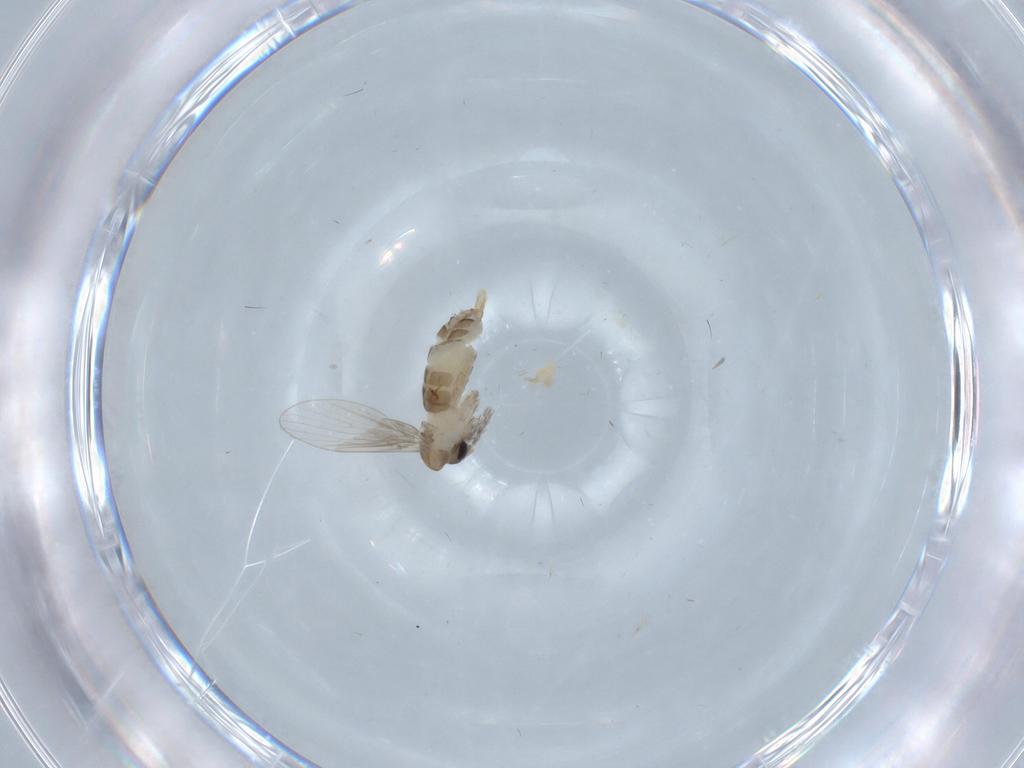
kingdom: Animalia
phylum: Arthropoda
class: Insecta
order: Diptera
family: Psychodidae
